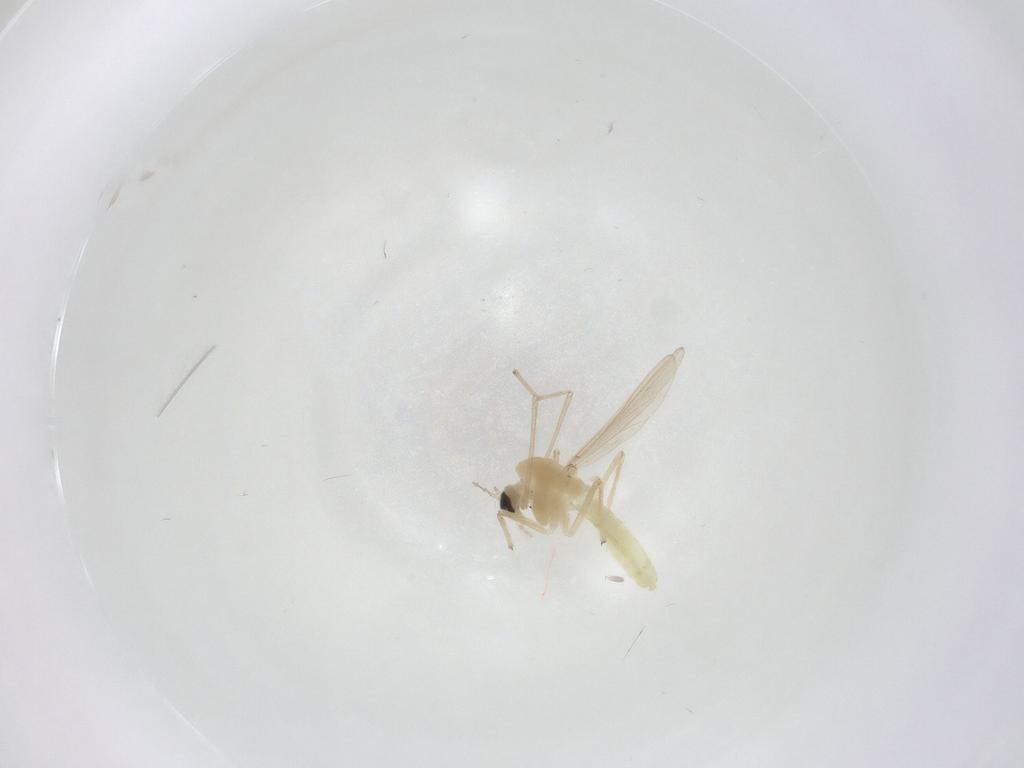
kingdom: Animalia
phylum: Arthropoda
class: Insecta
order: Diptera
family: Chironomidae
